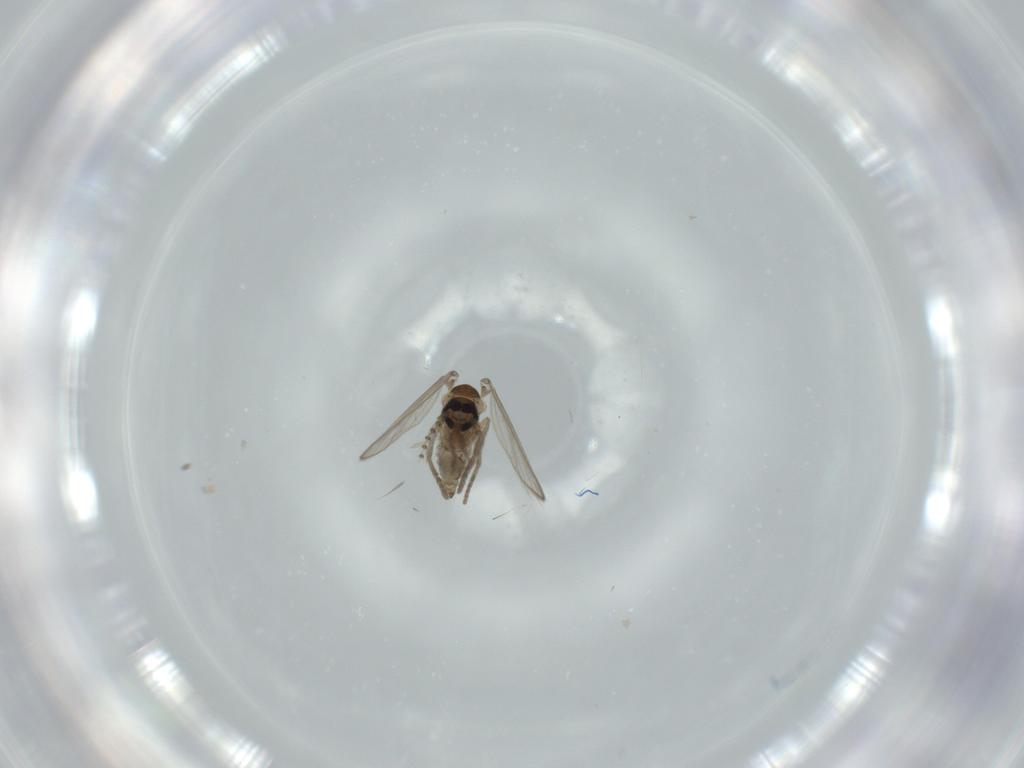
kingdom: Animalia
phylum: Arthropoda
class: Insecta
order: Diptera
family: Psychodidae
